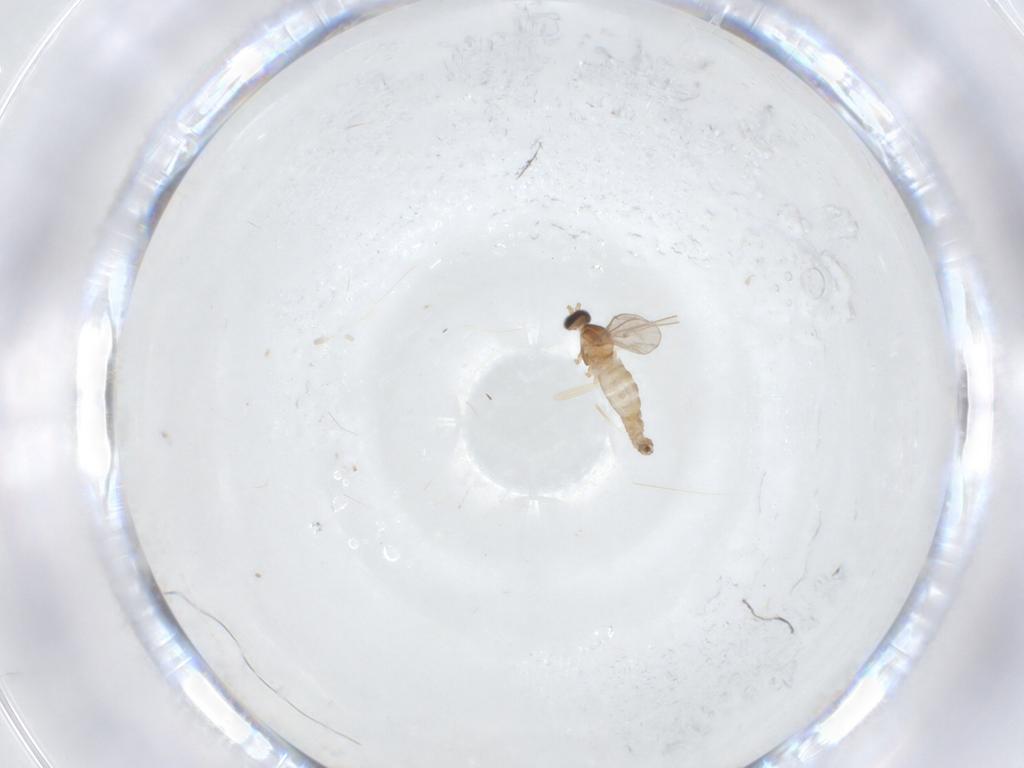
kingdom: Animalia
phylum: Arthropoda
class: Insecta
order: Diptera
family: Cecidomyiidae
